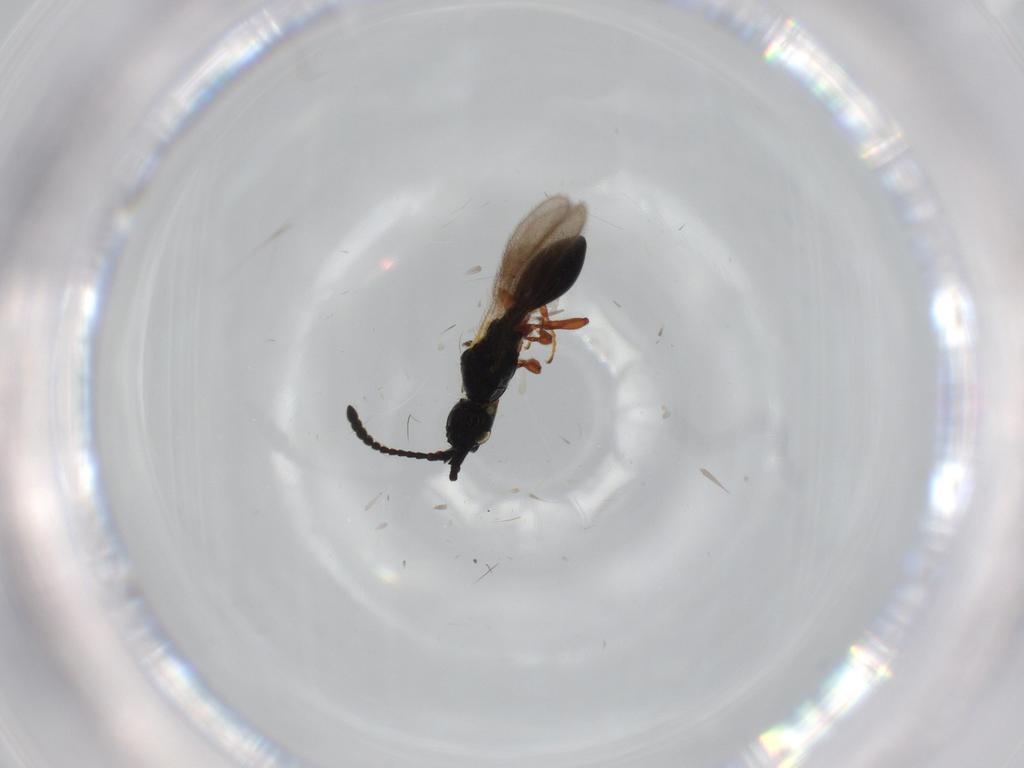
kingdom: Animalia
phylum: Arthropoda
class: Insecta
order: Hymenoptera
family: Diapriidae
